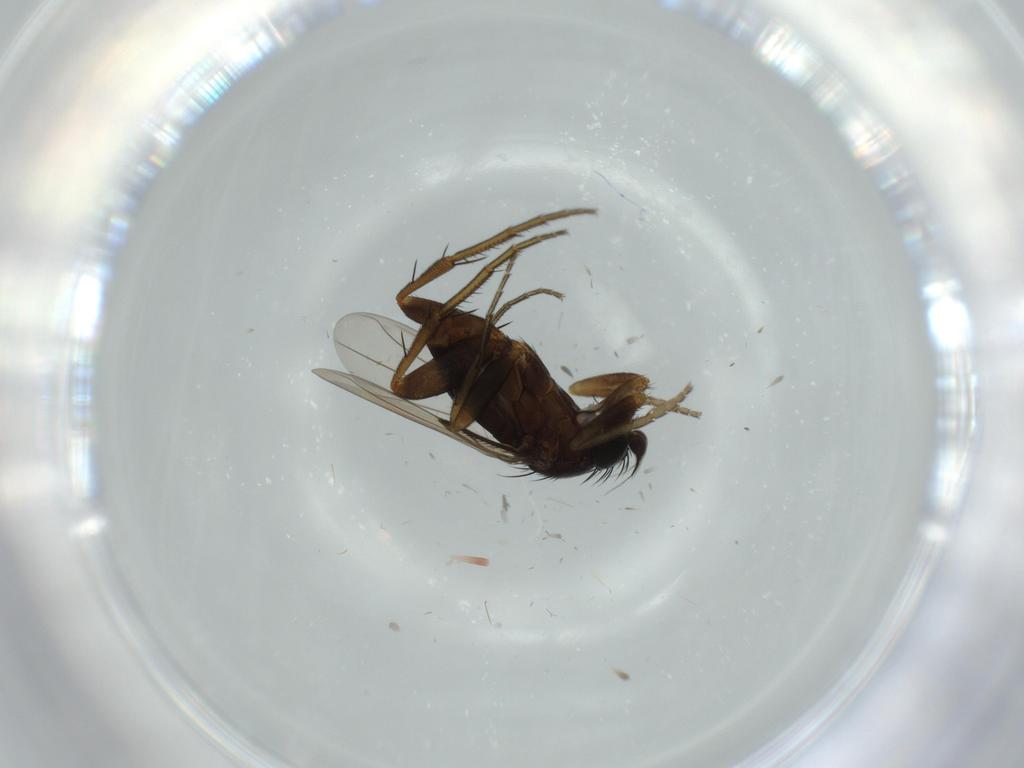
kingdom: Animalia
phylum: Arthropoda
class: Insecta
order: Diptera
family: Phoridae
